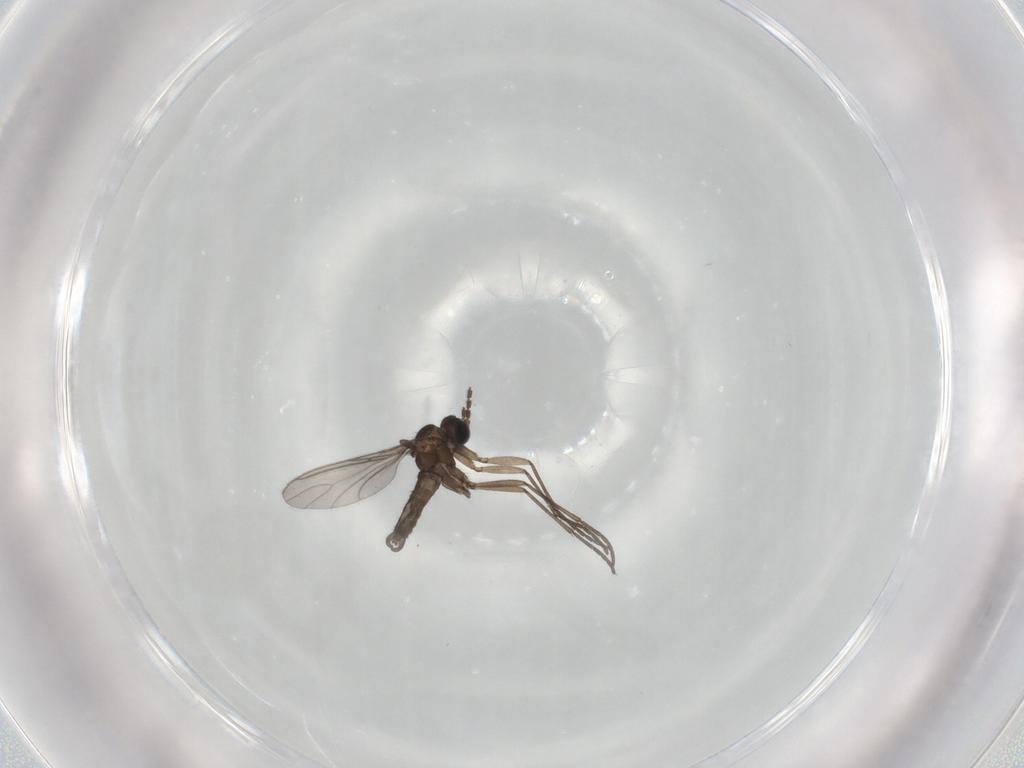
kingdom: Animalia
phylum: Arthropoda
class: Insecta
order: Diptera
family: Sciaridae
